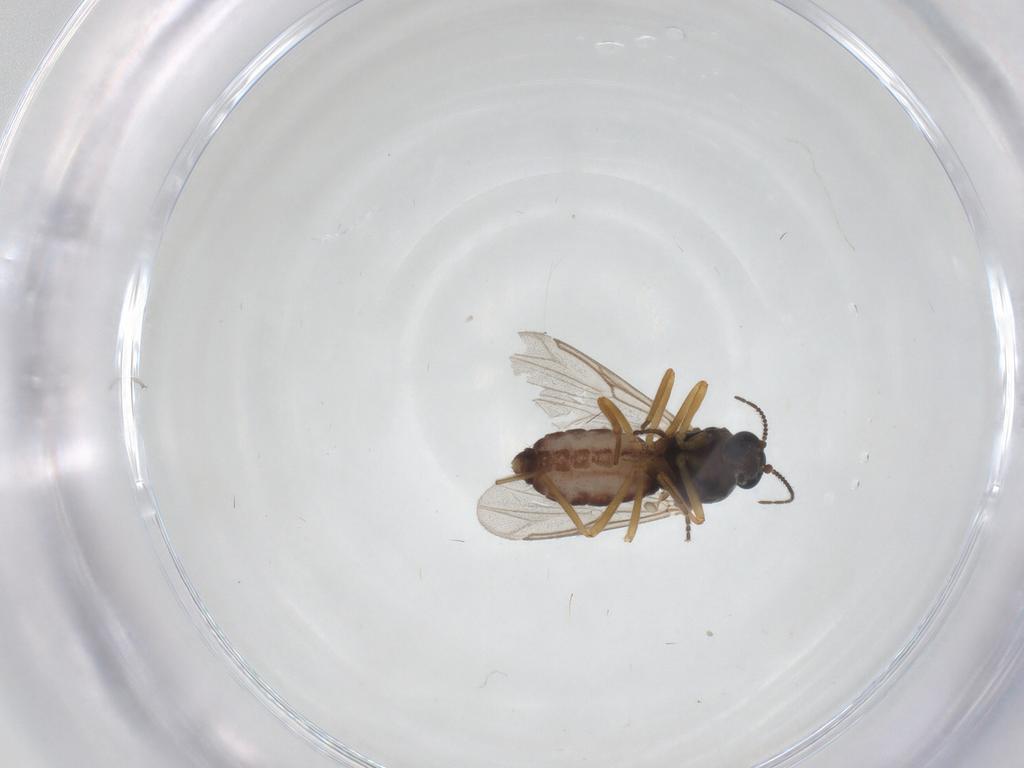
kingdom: Animalia
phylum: Arthropoda
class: Insecta
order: Diptera
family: Ceratopogonidae
